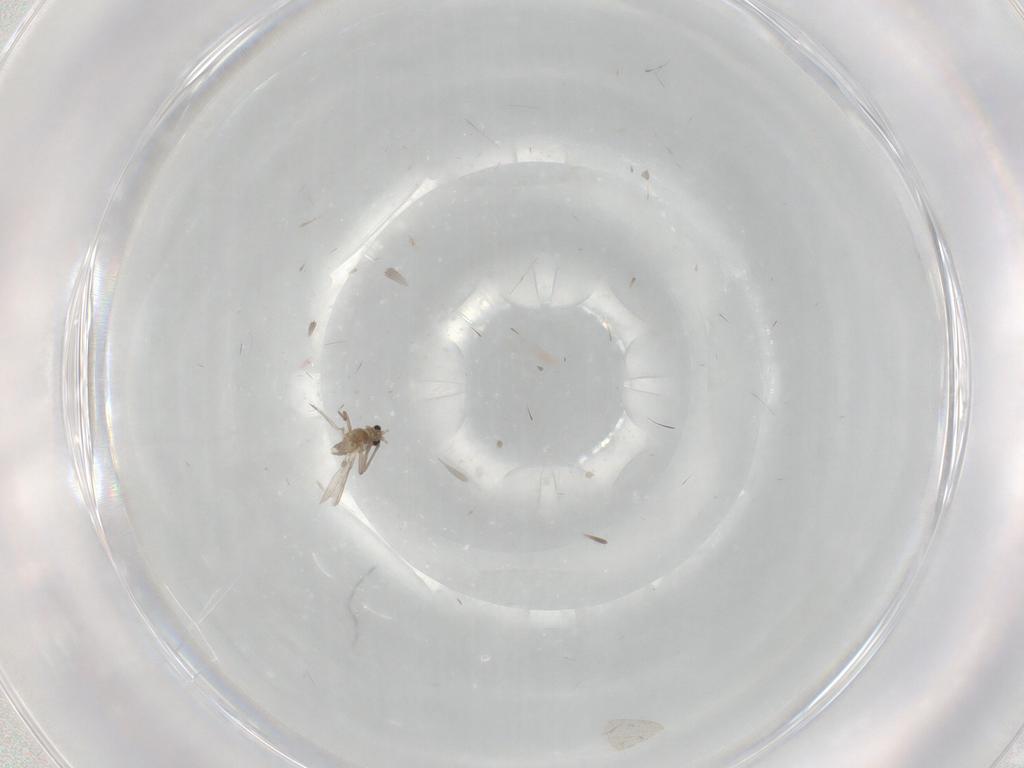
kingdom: Animalia
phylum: Arthropoda
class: Insecta
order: Diptera
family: Chironomidae
